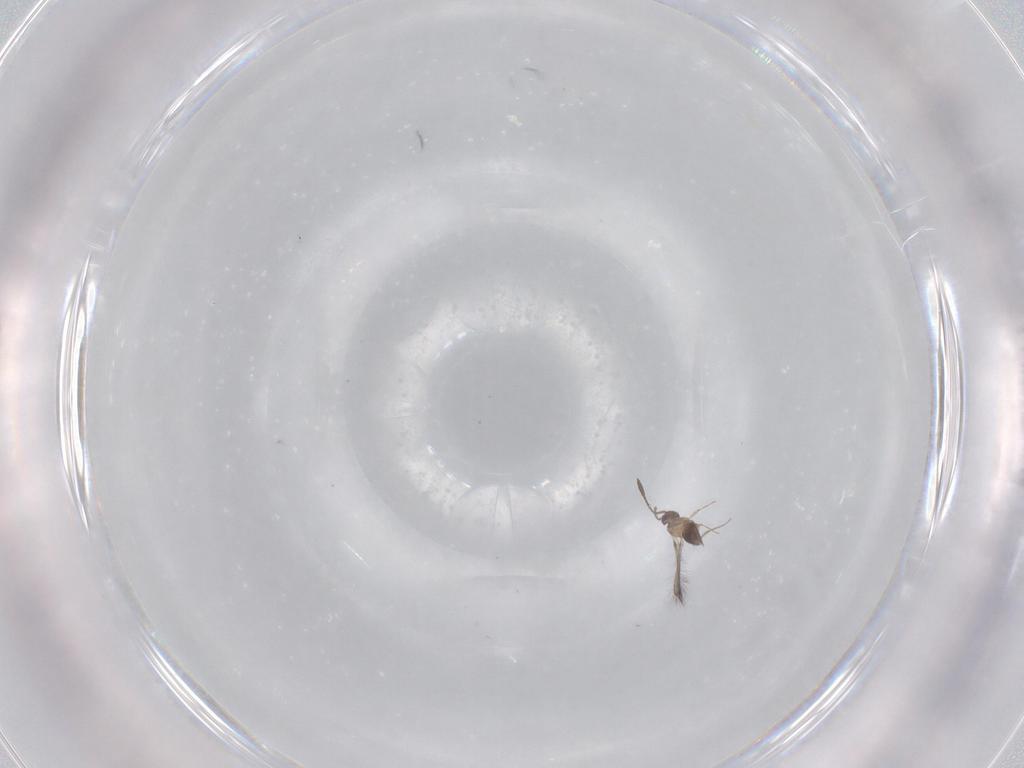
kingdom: Animalia
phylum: Arthropoda
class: Insecta
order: Hymenoptera
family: Mymaridae
